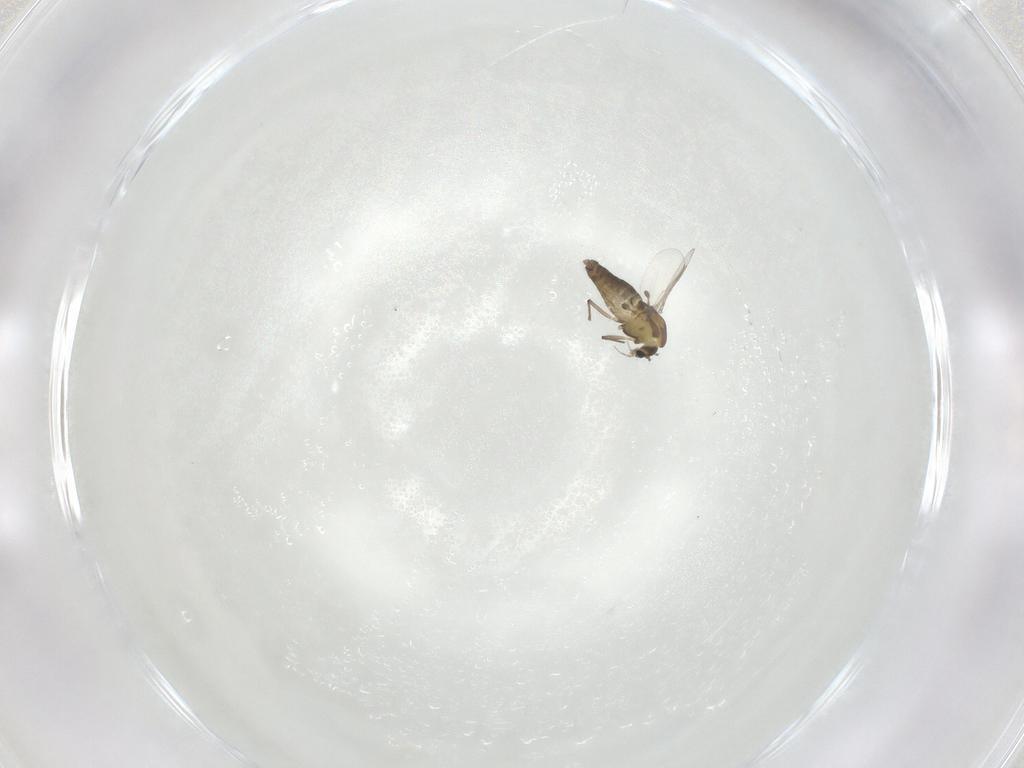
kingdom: Animalia
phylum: Arthropoda
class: Insecta
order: Diptera
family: Chironomidae
